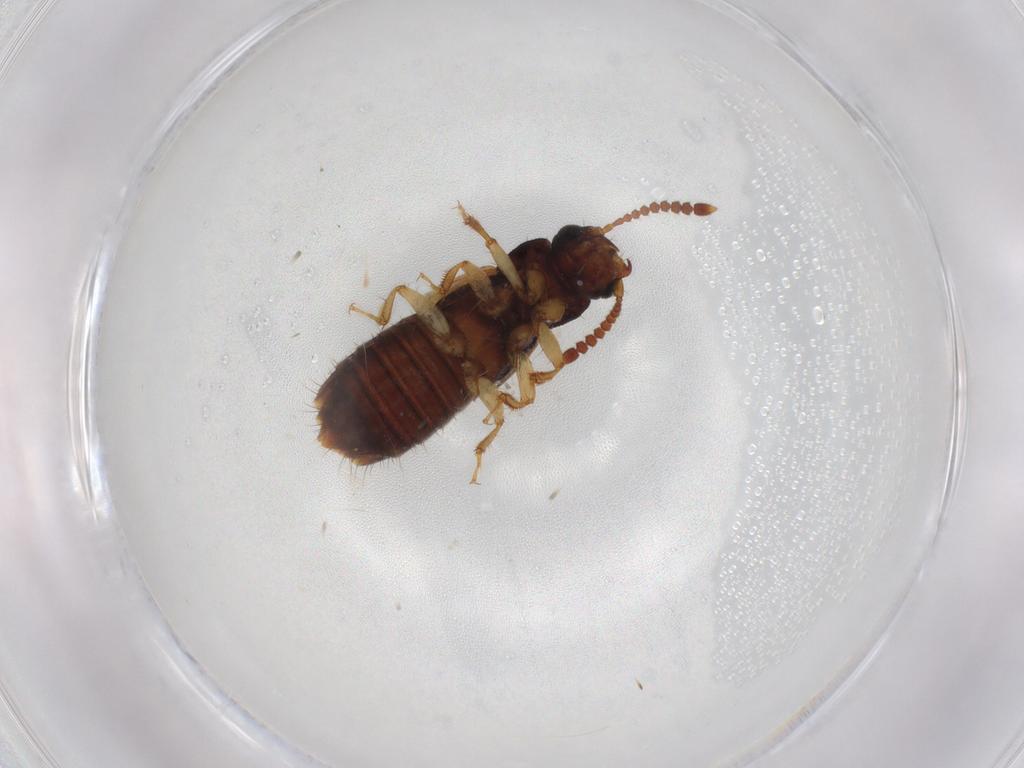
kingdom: Animalia
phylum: Arthropoda
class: Insecta
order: Coleoptera
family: Staphylinidae
